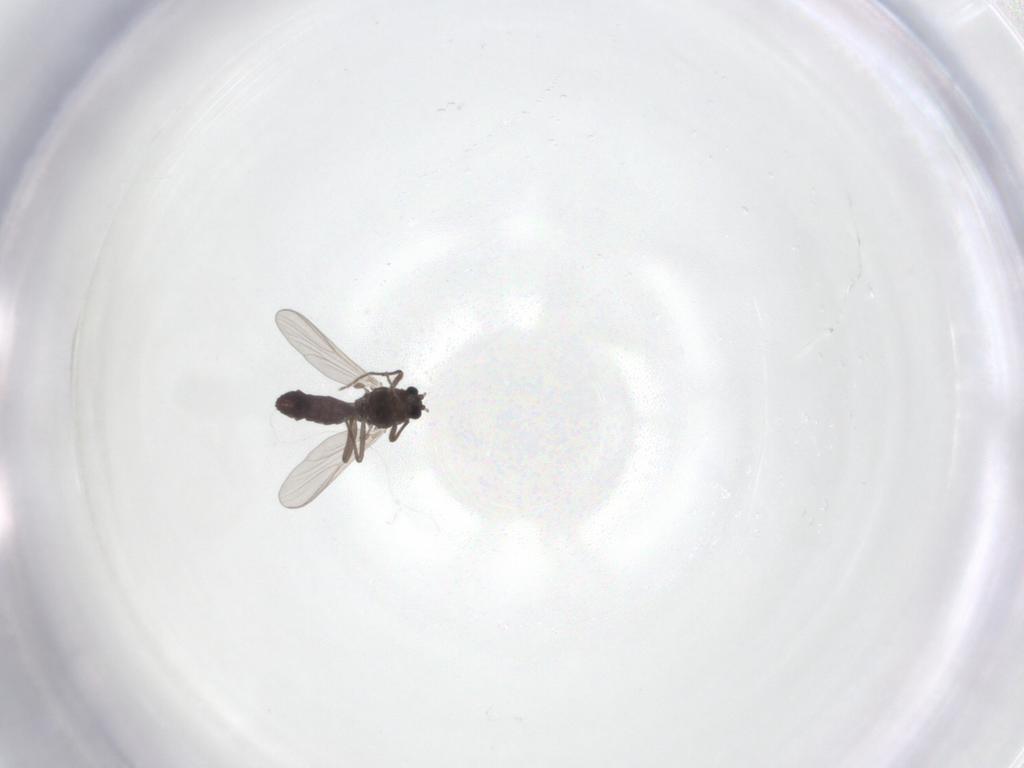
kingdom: Animalia
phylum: Arthropoda
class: Insecta
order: Diptera
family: Chironomidae
